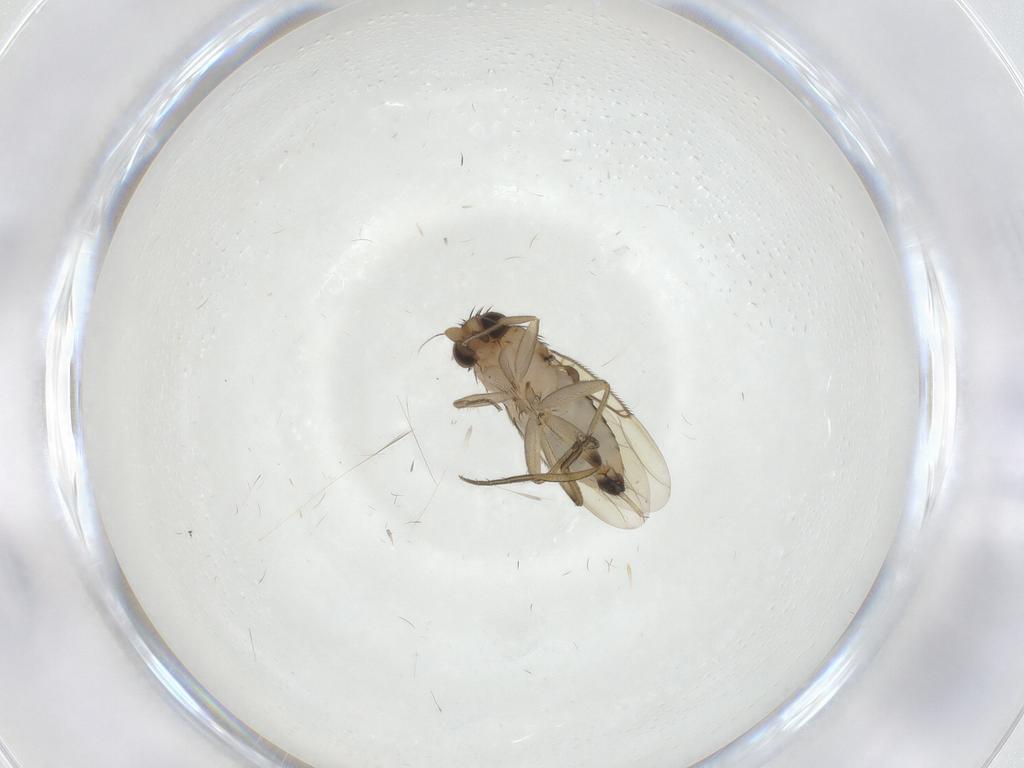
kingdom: Animalia
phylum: Arthropoda
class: Insecta
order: Diptera
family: Phoridae
